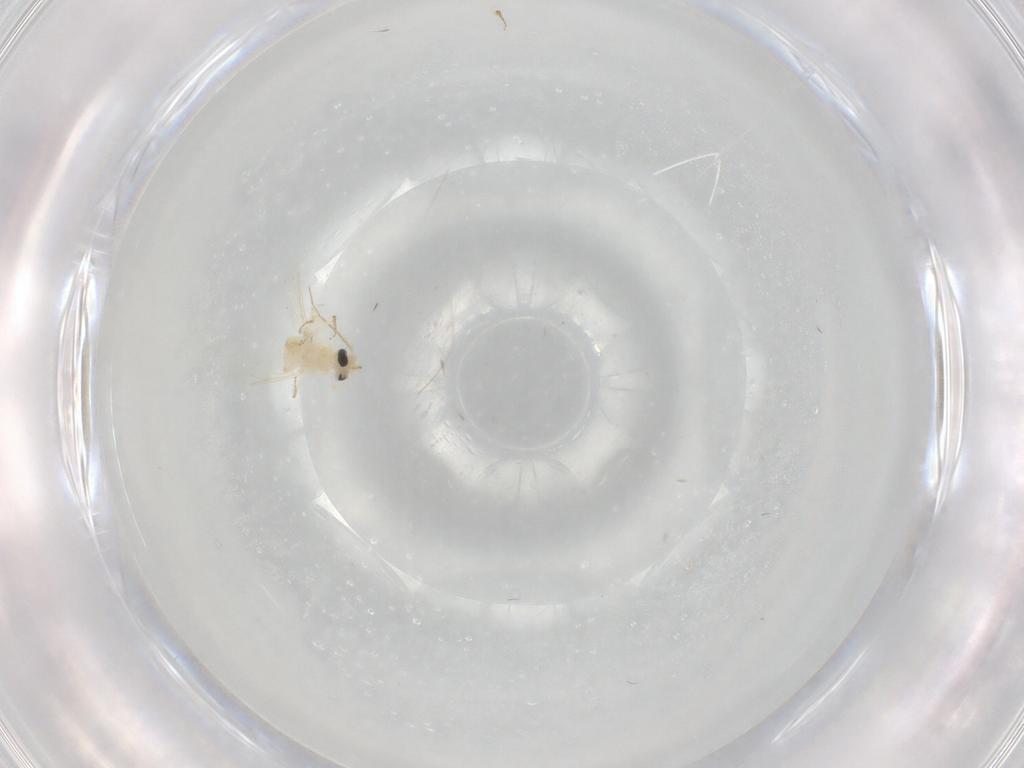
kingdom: Animalia
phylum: Arthropoda
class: Insecta
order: Diptera
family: Ceratopogonidae
